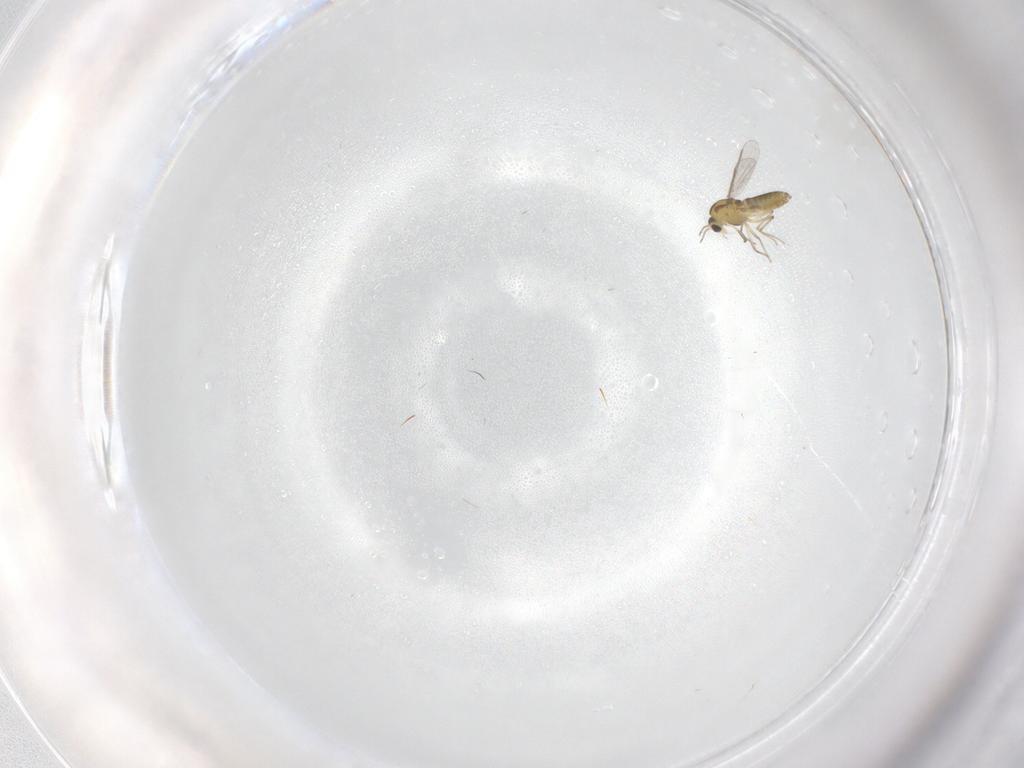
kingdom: Animalia
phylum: Arthropoda
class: Insecta
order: Diptera
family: Chironomidae
